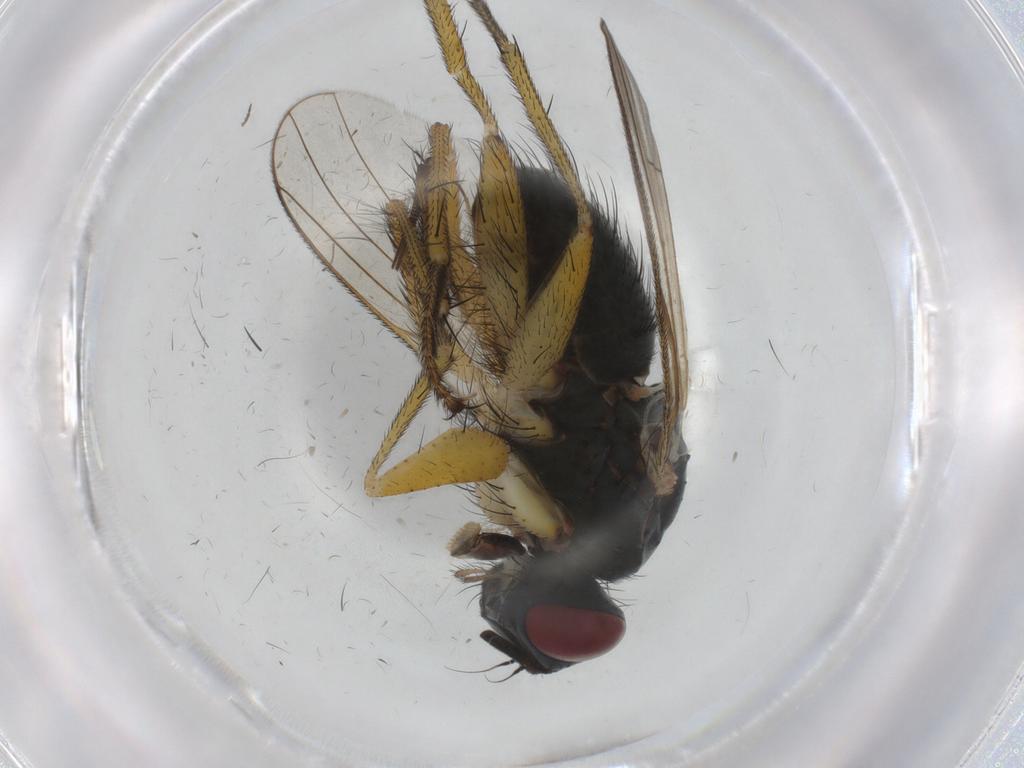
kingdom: Animalia
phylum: Arthropoda
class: Insecta
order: Diptera
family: Muscidae
